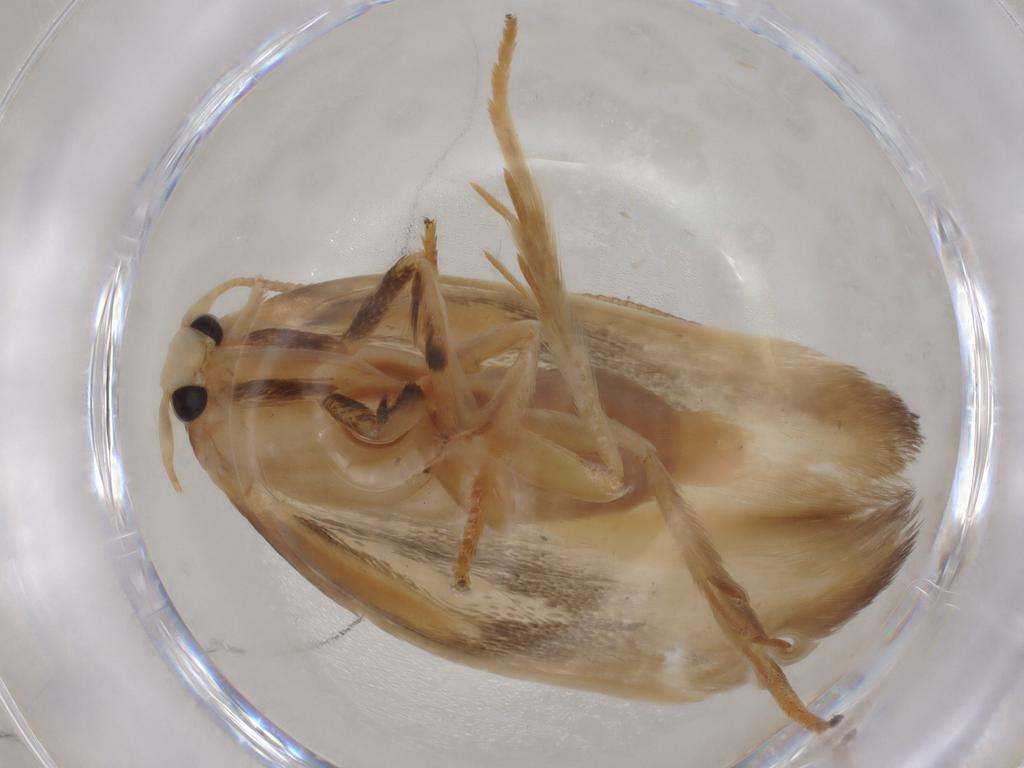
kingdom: Animalia
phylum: Arthropoda
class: Insecta
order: Lepidoptera
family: Geometridae
